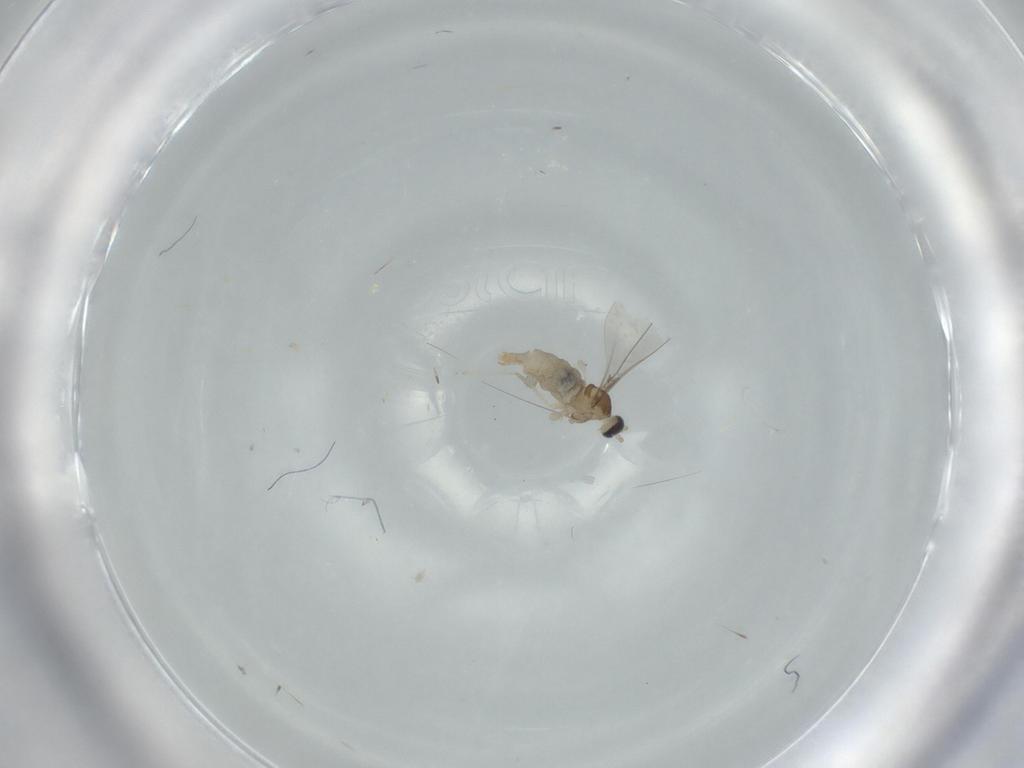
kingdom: Animalia
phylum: Arthropoda
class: Insecta
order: Diptera
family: Cecidomyiidae
